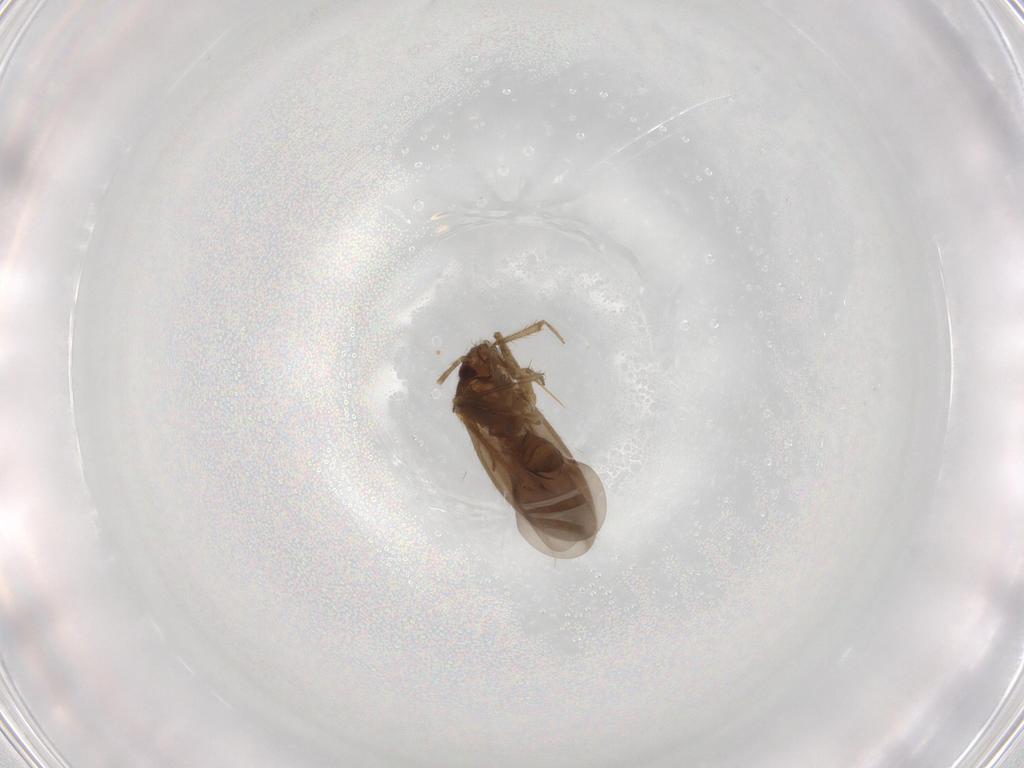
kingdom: Animalia
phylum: Arthropoda
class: Insecta
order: Hemiptera
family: Ceratocombidae
